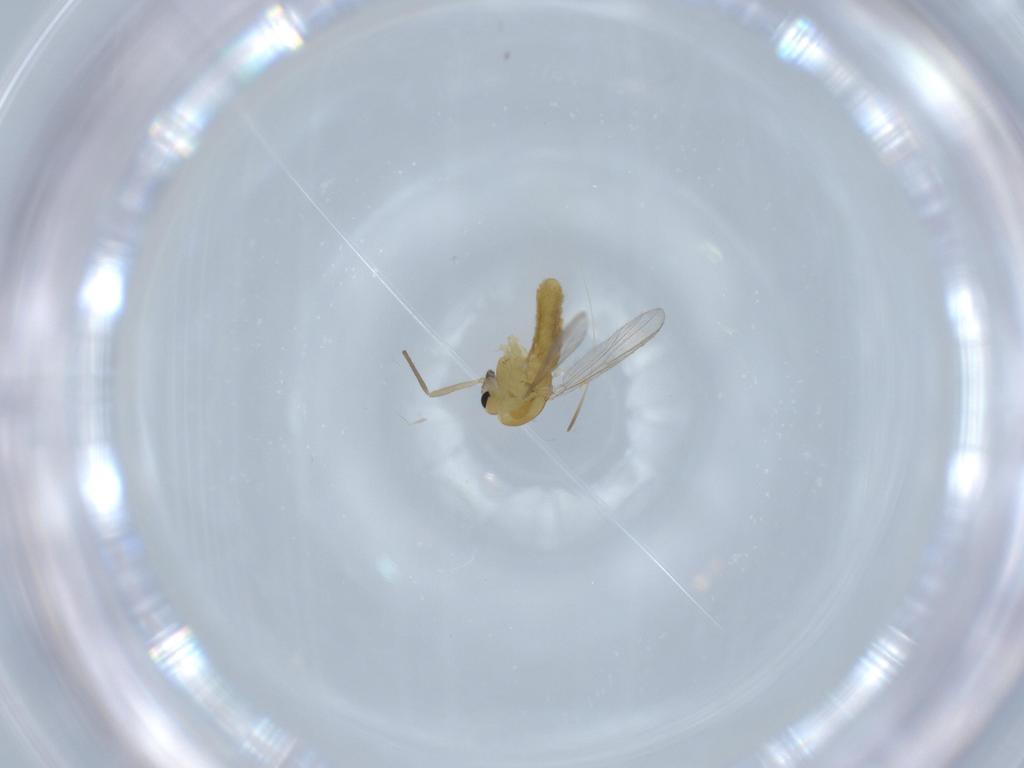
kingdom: Animalia
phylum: Arthropoda
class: Insecta
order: Diptera
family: Chironomidae
